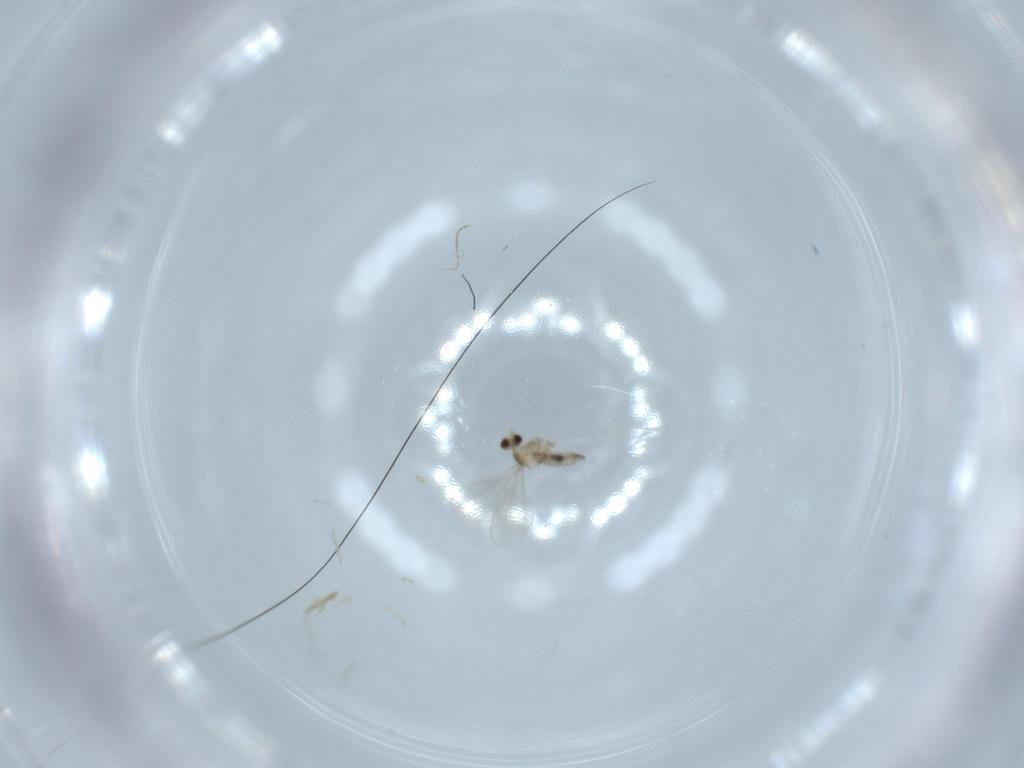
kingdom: Animalia
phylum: Arthropoda
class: Insecta
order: Diptera
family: Cecidomyiidae
